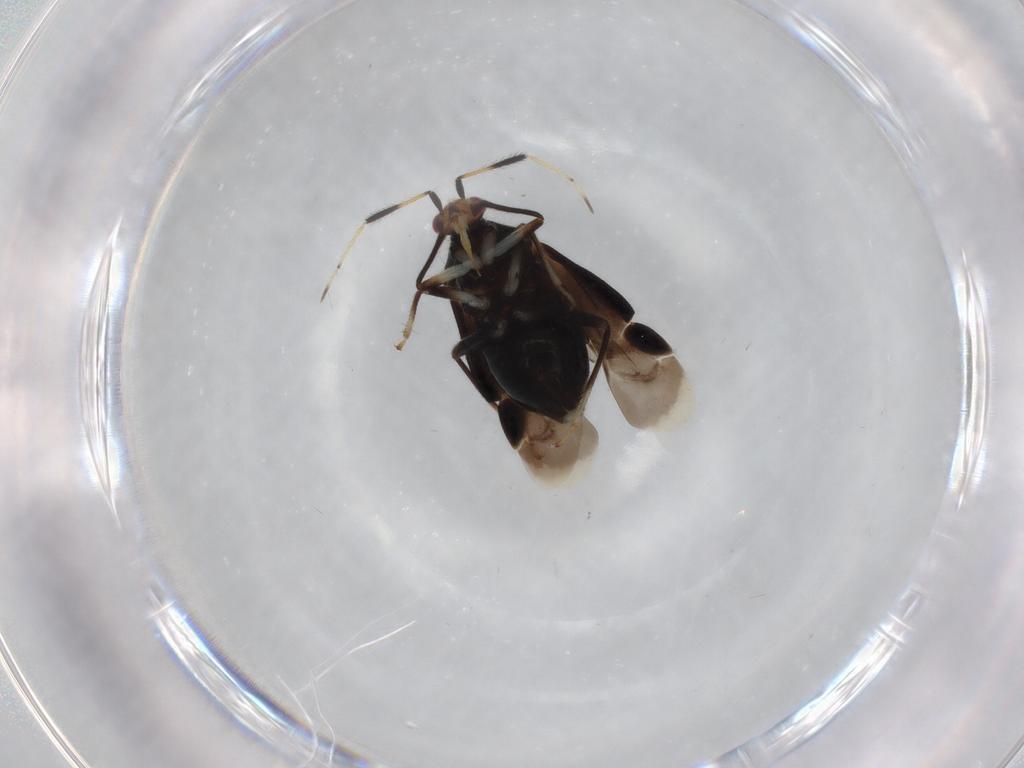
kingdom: Animalia
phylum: Arthropoda
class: Insecta
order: Hemiptera
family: Miridae
